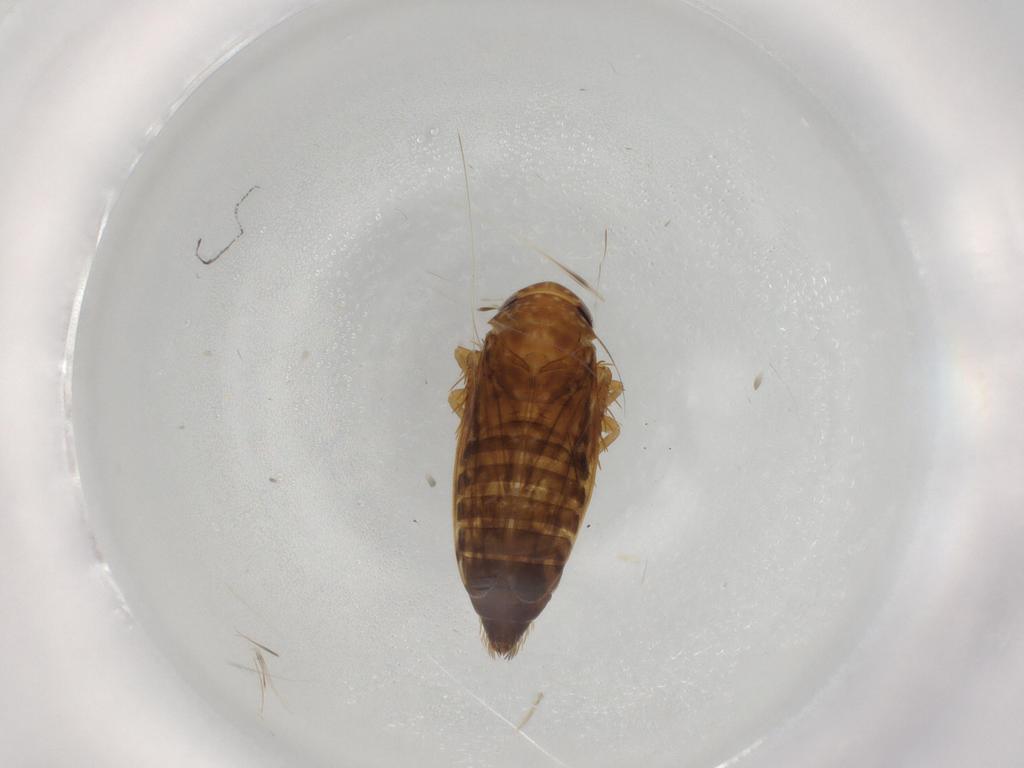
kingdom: Animalia
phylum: Arthropoda
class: Insecta
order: Hemiptera
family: Cicadellidae
